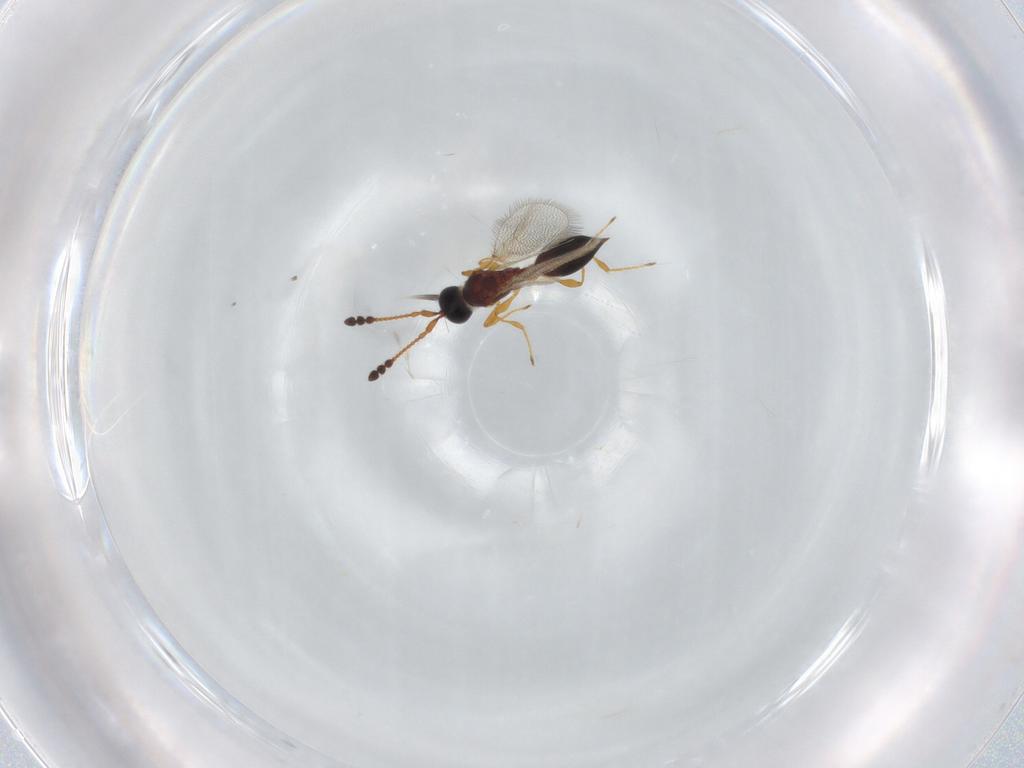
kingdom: Animalia
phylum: Arthropoda
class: Insecta
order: Hymenoptera
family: Diapriidae
